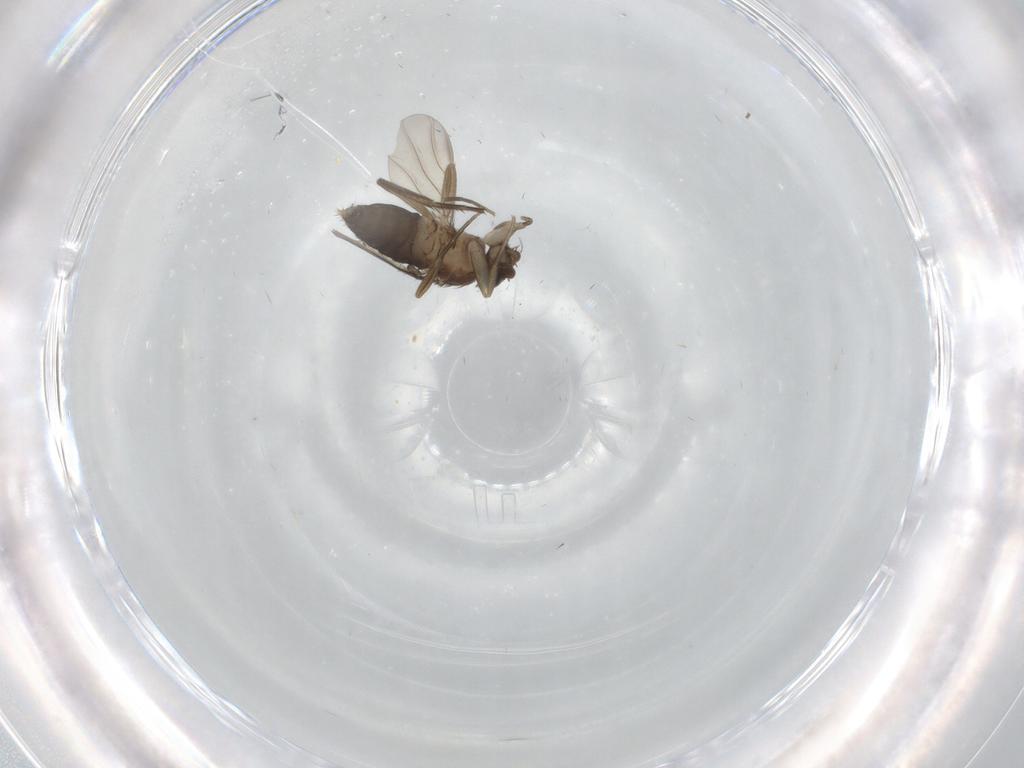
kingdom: Animalia
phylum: Arthropoda
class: Insecta
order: Diptera
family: Phoridae
